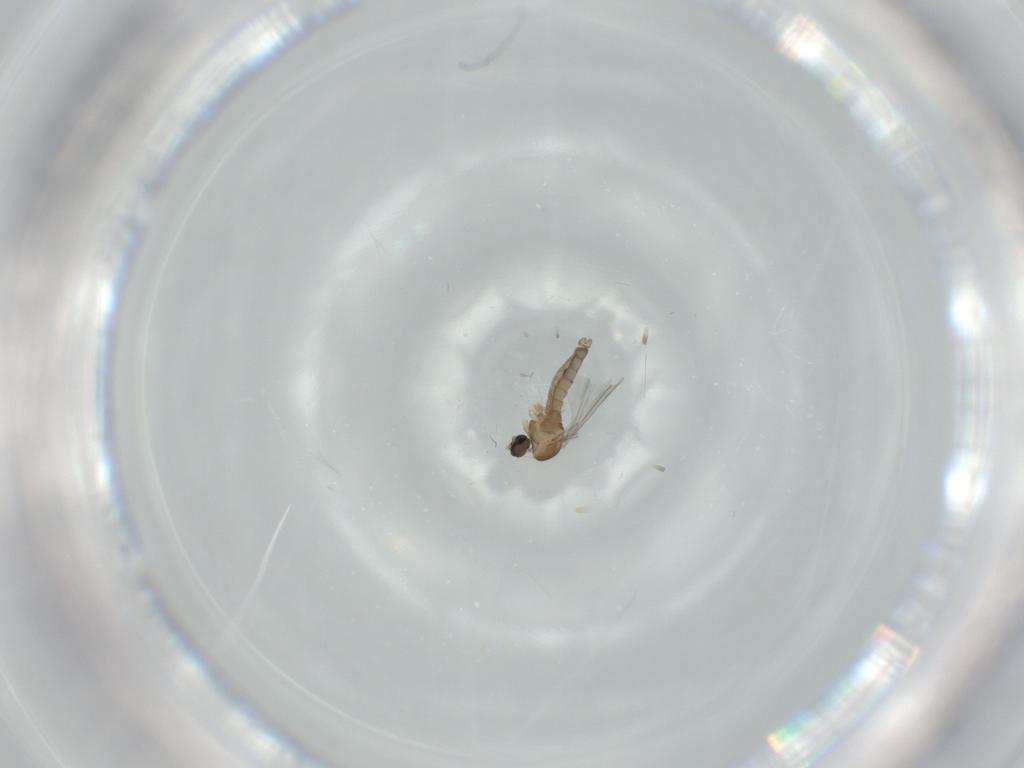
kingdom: Animalia
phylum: Arthropoda
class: Insecta
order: Diptera
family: Cecidomyiidae
